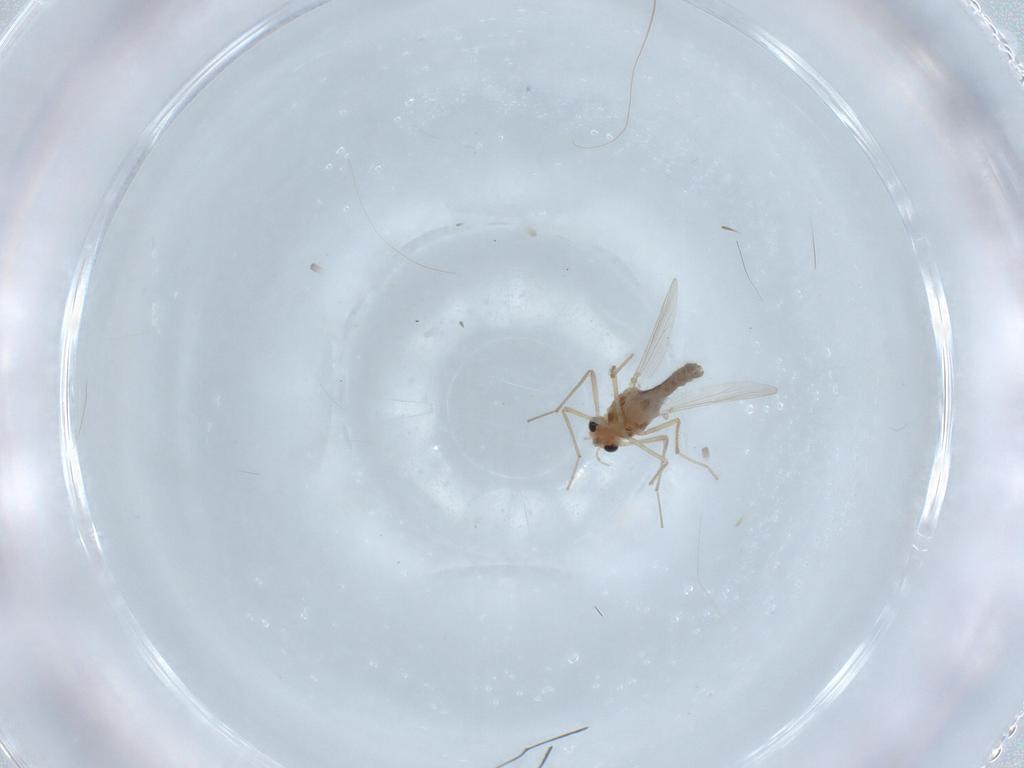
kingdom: Animalia
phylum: Arthropoda
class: Insecta
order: Diptera
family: Chironomidae
